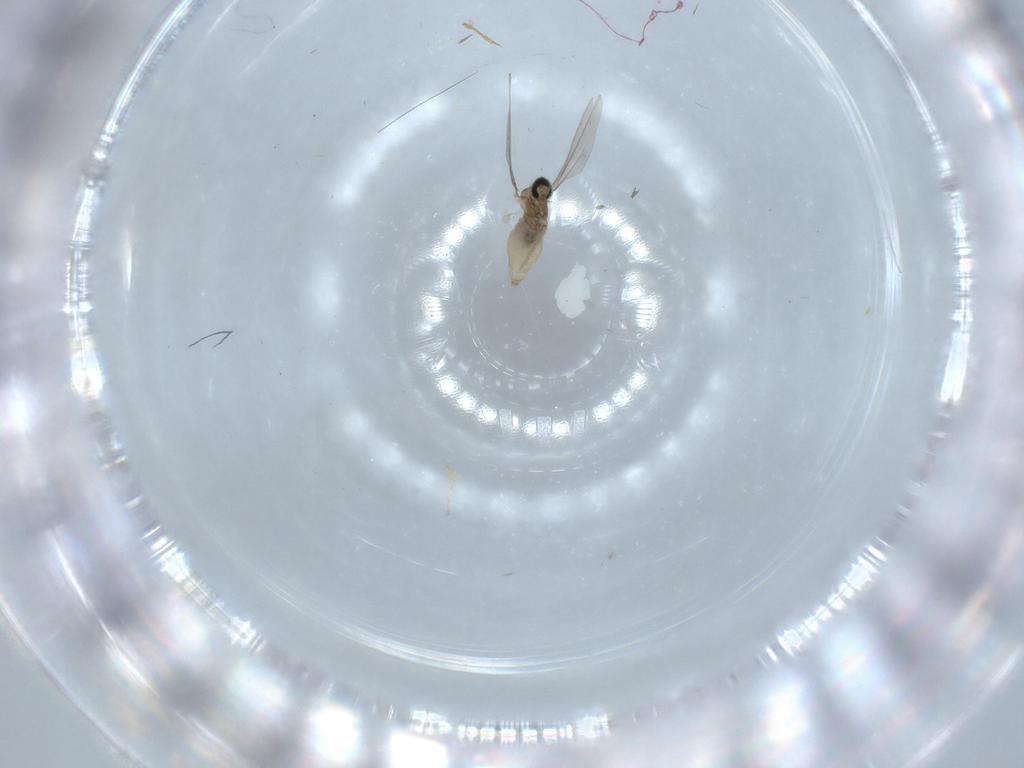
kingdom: Animalia
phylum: Arthropoda
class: Insecta
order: Diptera
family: Cecidomyiidae
